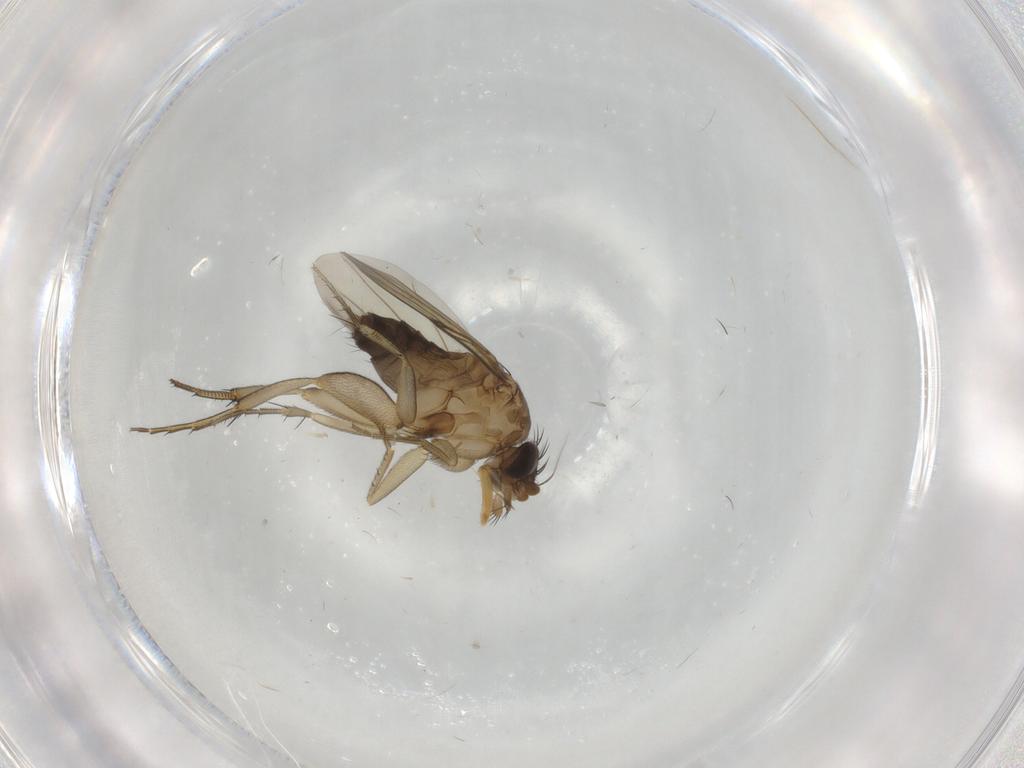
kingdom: Animalia
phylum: Arthropoda
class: Insecta
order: Diptera
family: Phoridae
